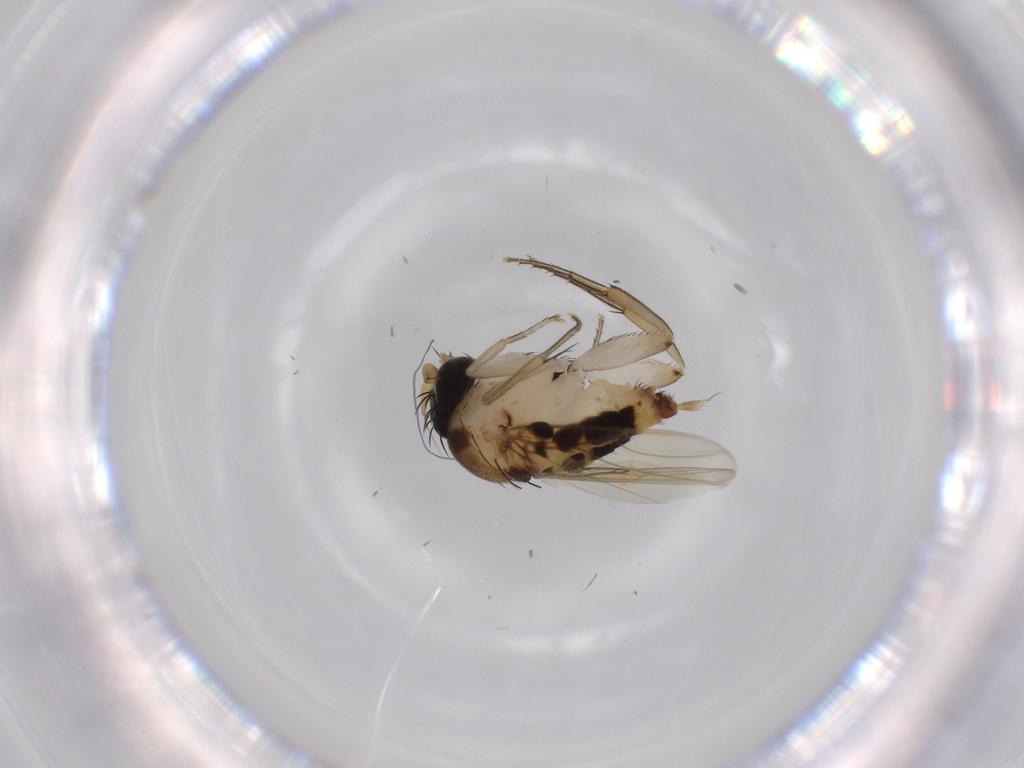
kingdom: Animalia
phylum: Arthropoda
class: Insecta
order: Diptera
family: Phoridae
